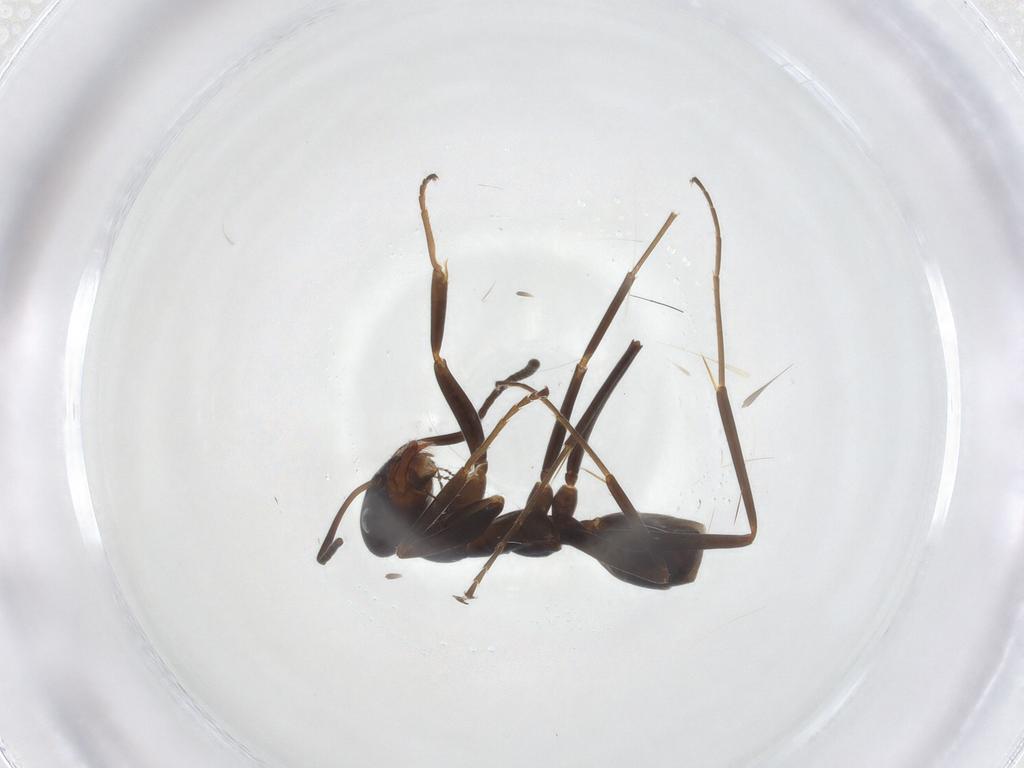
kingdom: Animalia
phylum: Arthropoda
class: Insecta
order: Hymenoptera
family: Formicidae
